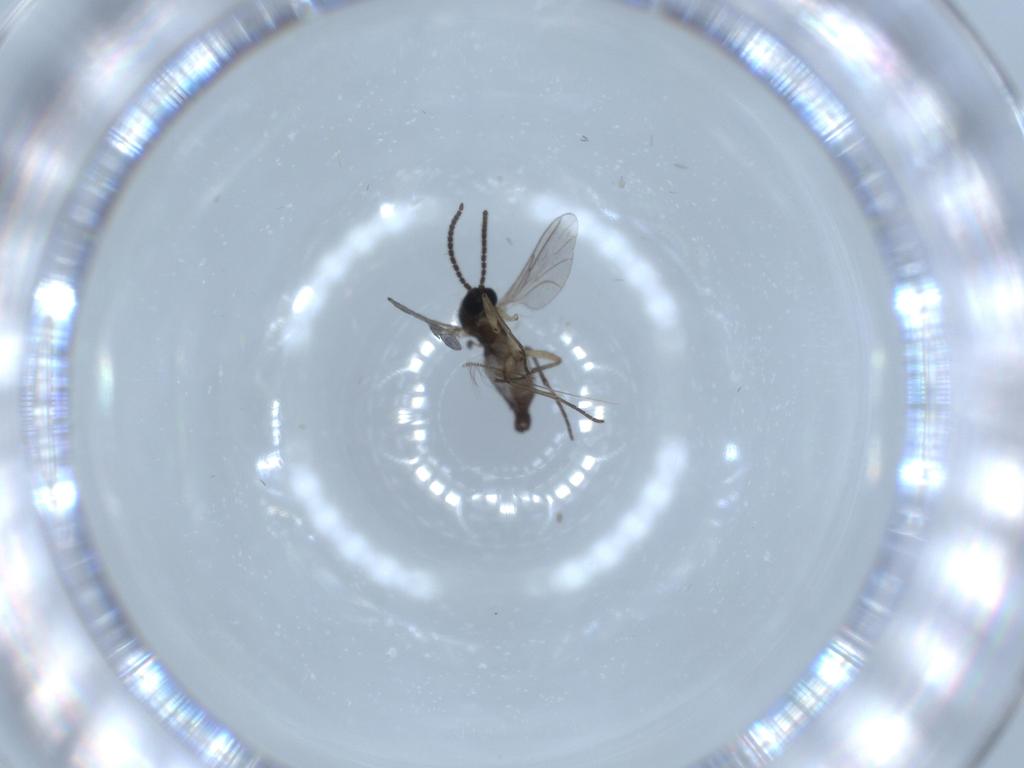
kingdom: Animalia
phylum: Arthropoda
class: Insecta
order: Diptera
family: Sciaridae
